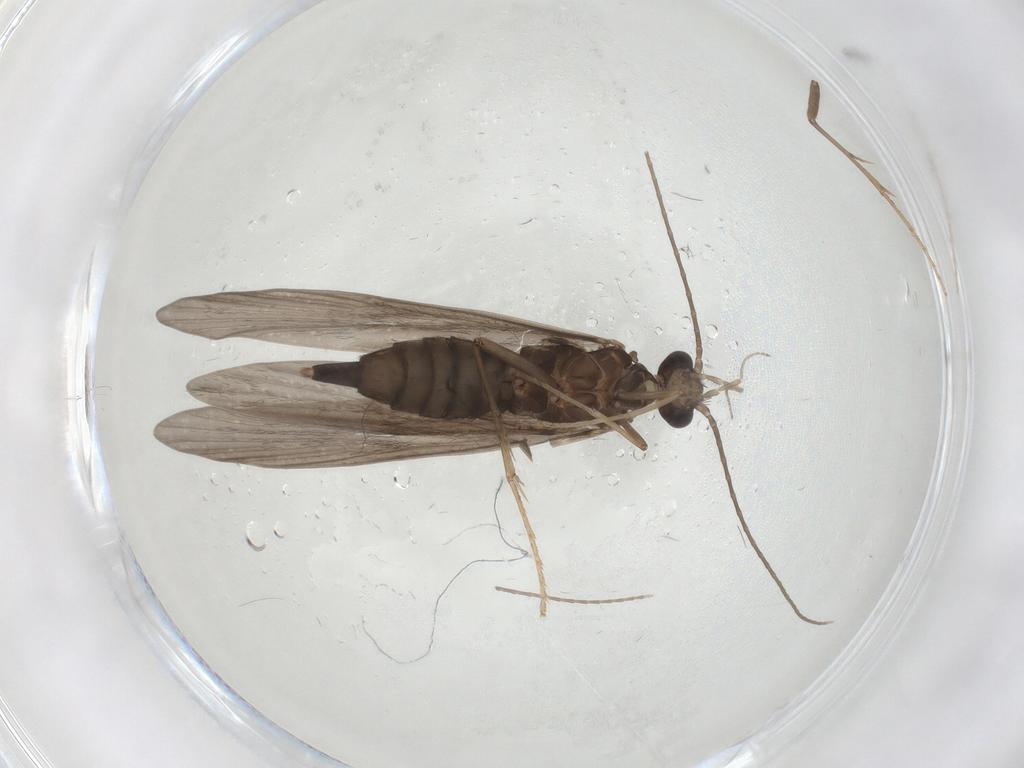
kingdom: Animalia
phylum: Arthropoda
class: Insecta
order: Trichoptera
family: Xiphocentronidae
